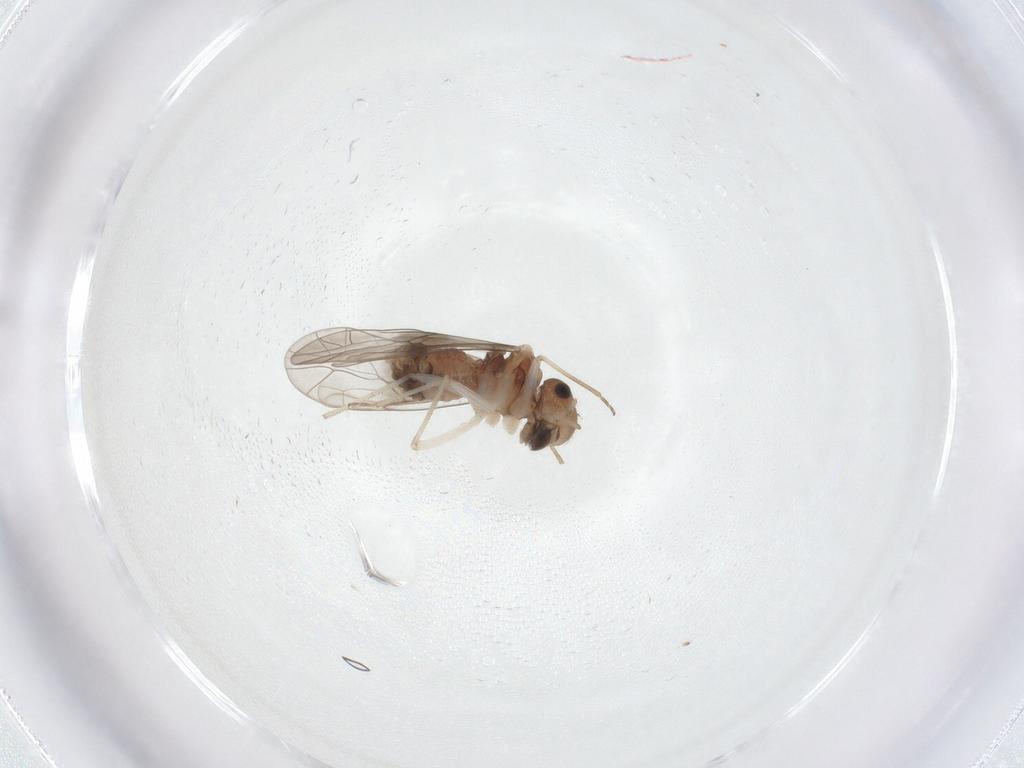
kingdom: Animalia
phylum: Arthropoda
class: Insecta
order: Psocodea
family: Prionoglarididae
